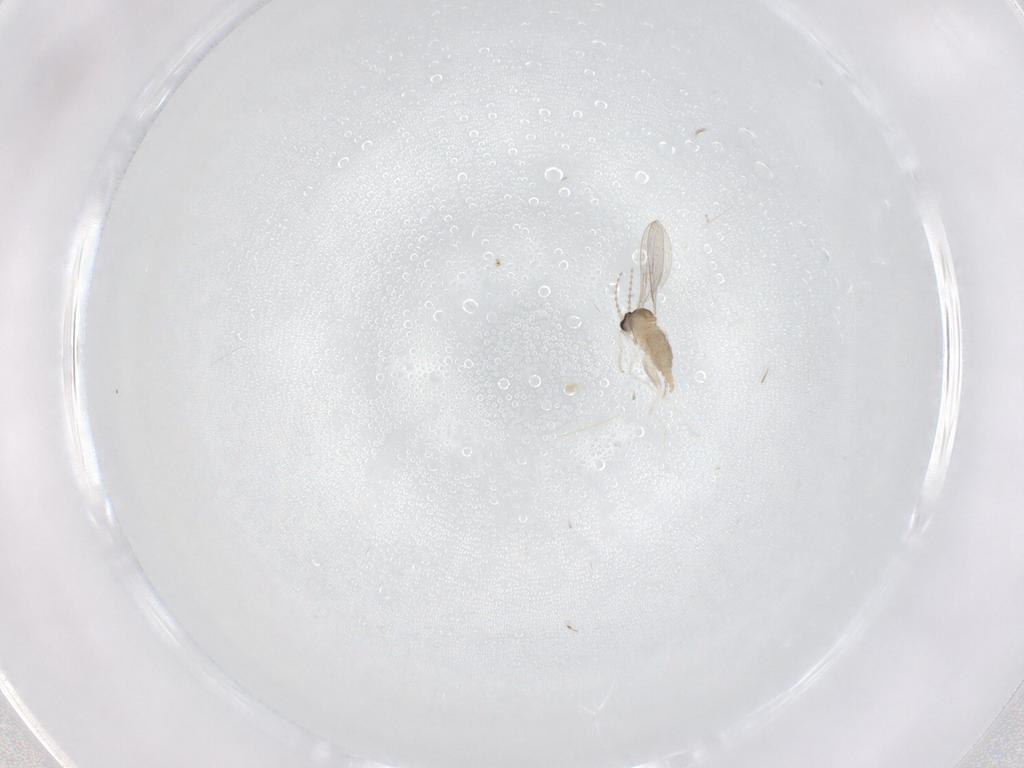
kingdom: Animalia
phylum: Arthropoda
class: Insecta
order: Diptera
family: Cecidomyiidae
